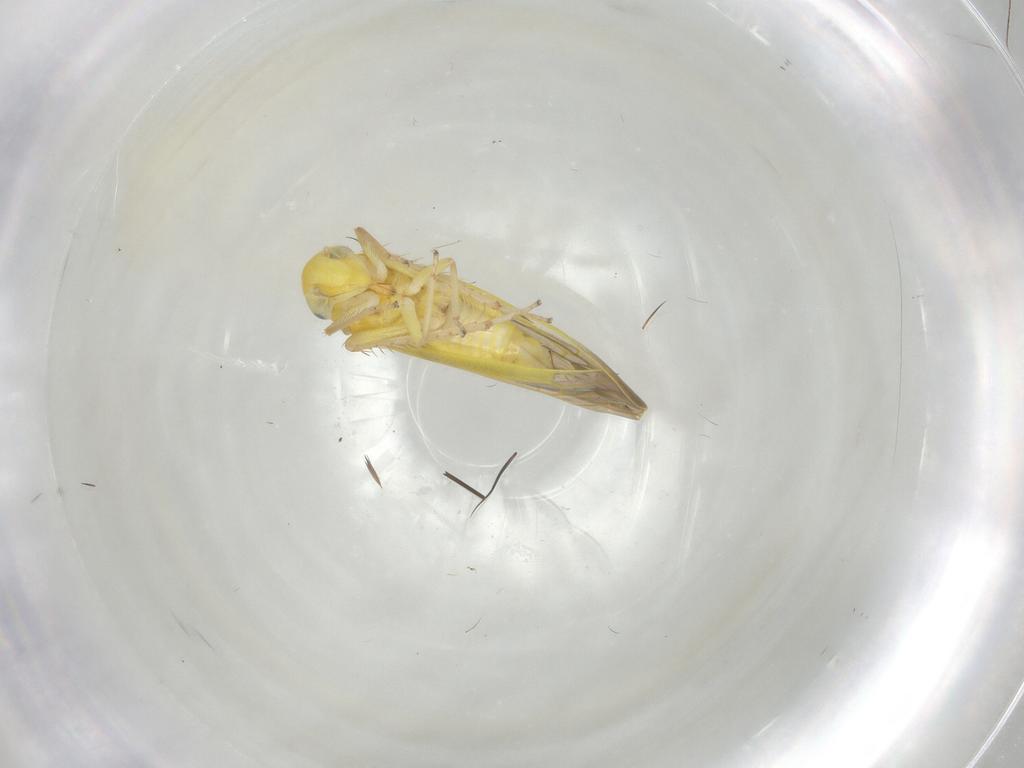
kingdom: Animalia
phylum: Arthropoda
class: Insecta
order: Hemiptera
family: Cicadellidae
